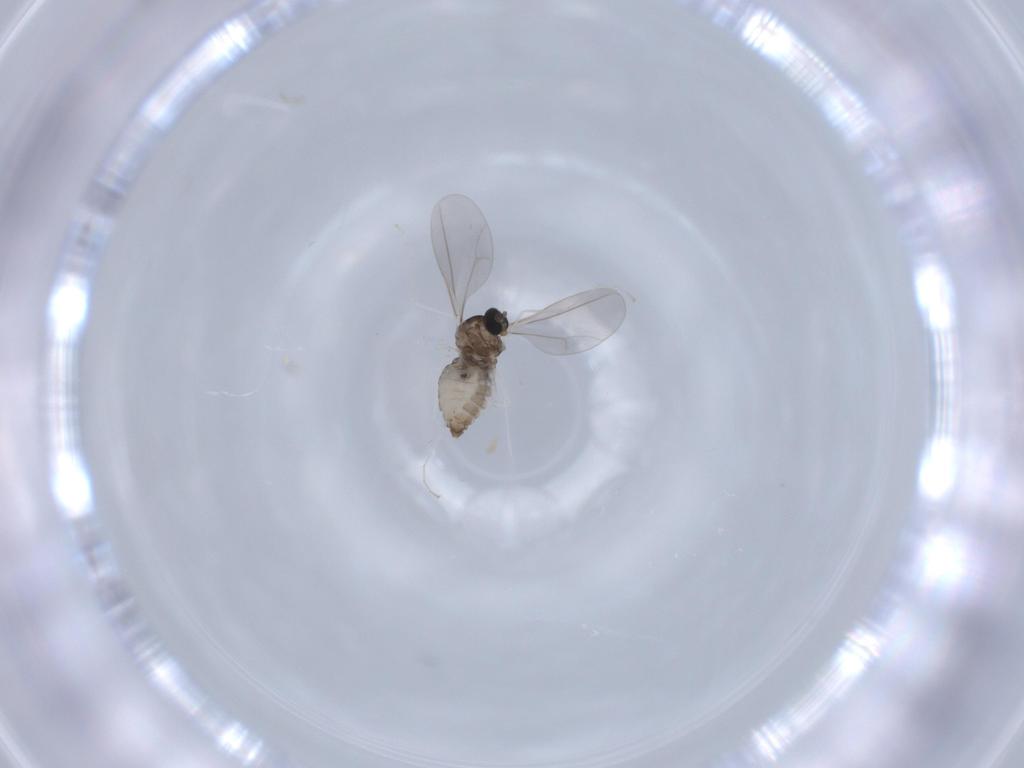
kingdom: Animalia
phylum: Arthropoda
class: Insecta
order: Diptera
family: Cecidomyiidae
